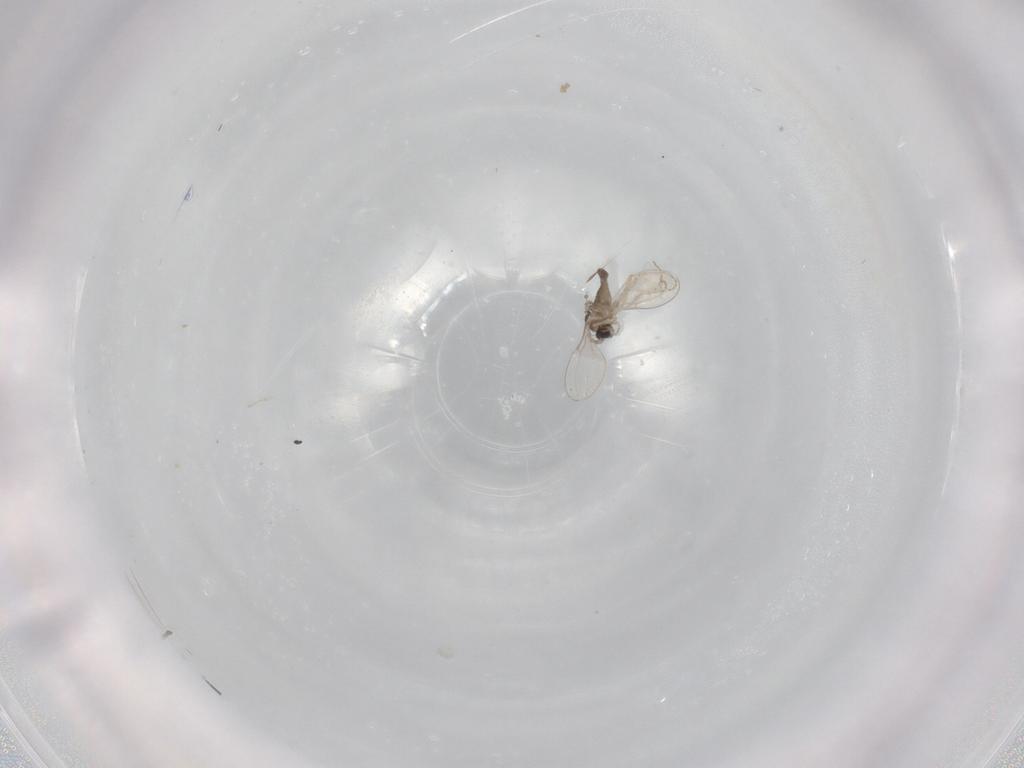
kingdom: Animalia
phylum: Arthropoda
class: Insecta
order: Diptera
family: Cecidomyiidae
